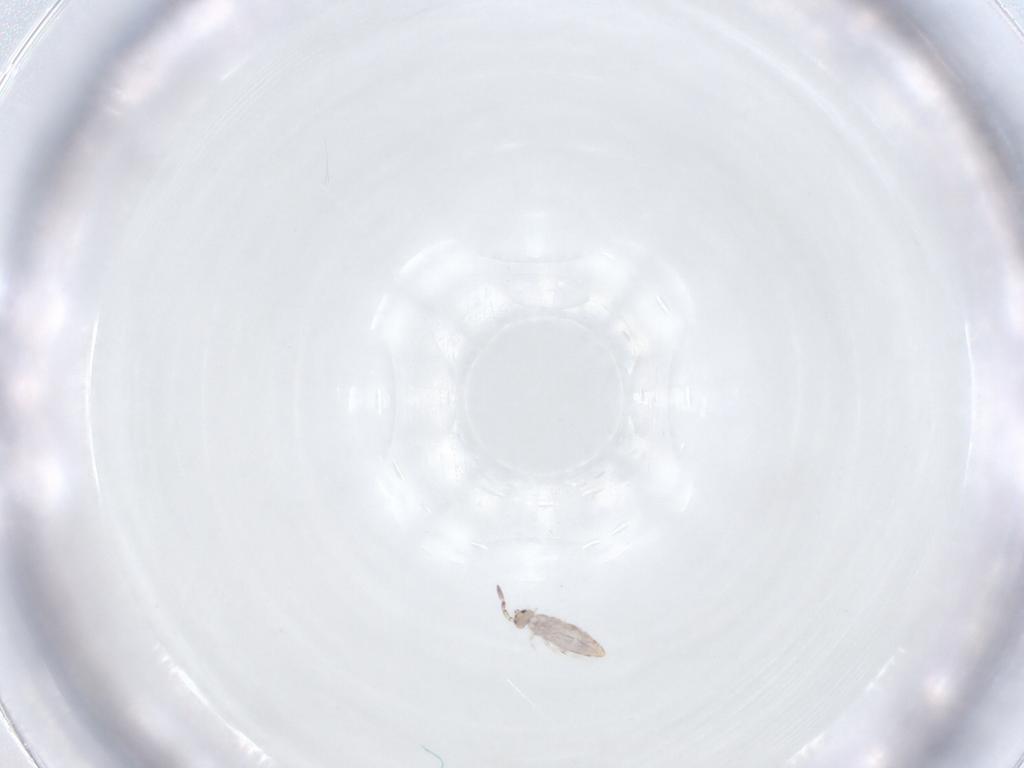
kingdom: Animalia
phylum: Arthropoda
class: Collembola
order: Entomobryomorpha
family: Entomobryidae
